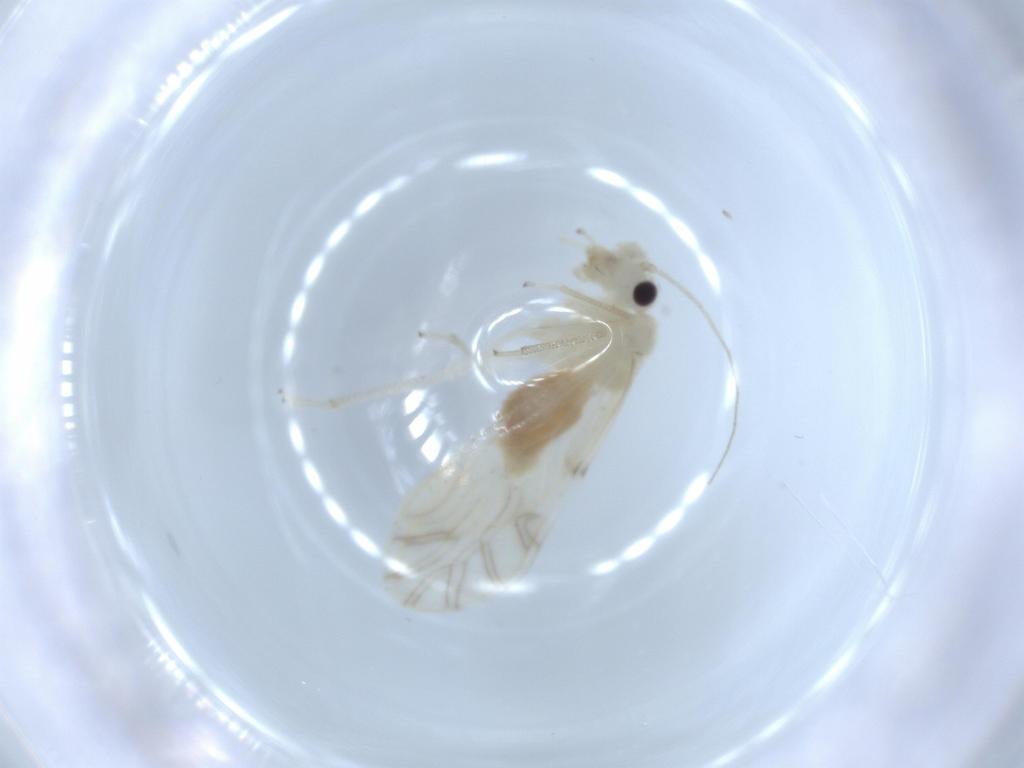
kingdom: Animalia
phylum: Arthropoda
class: Insecta
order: Psocodea
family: Caeciliusidae
